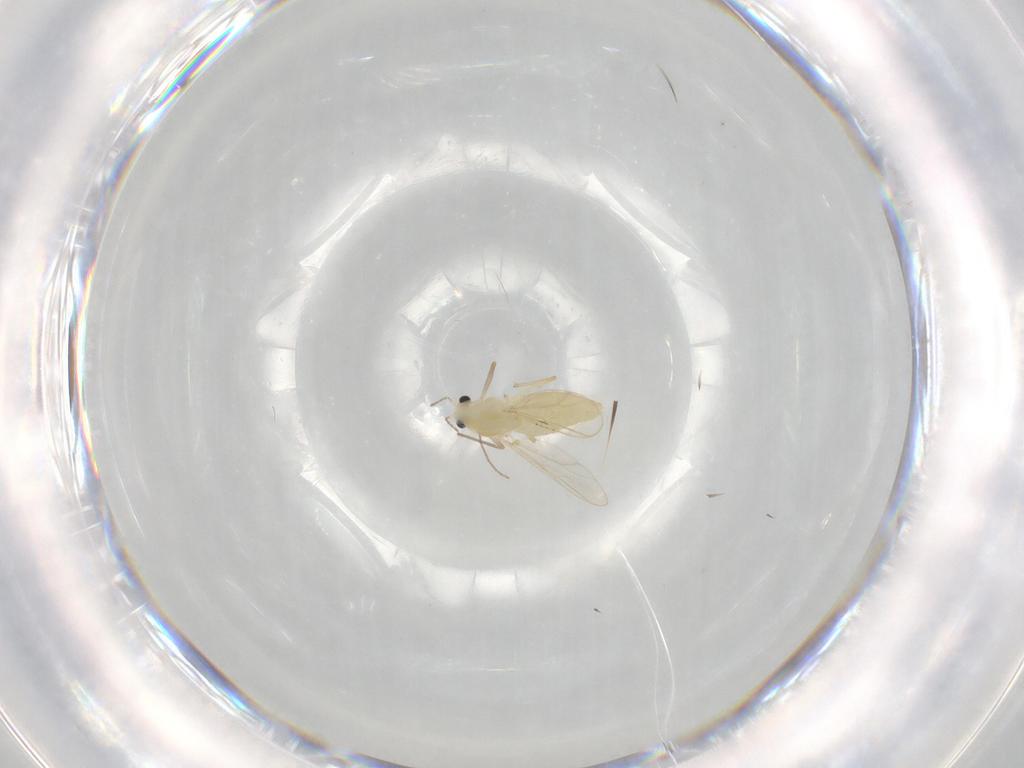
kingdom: Animalia
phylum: Arthropoda
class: Insecta
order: Diptera
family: Chironomidae
